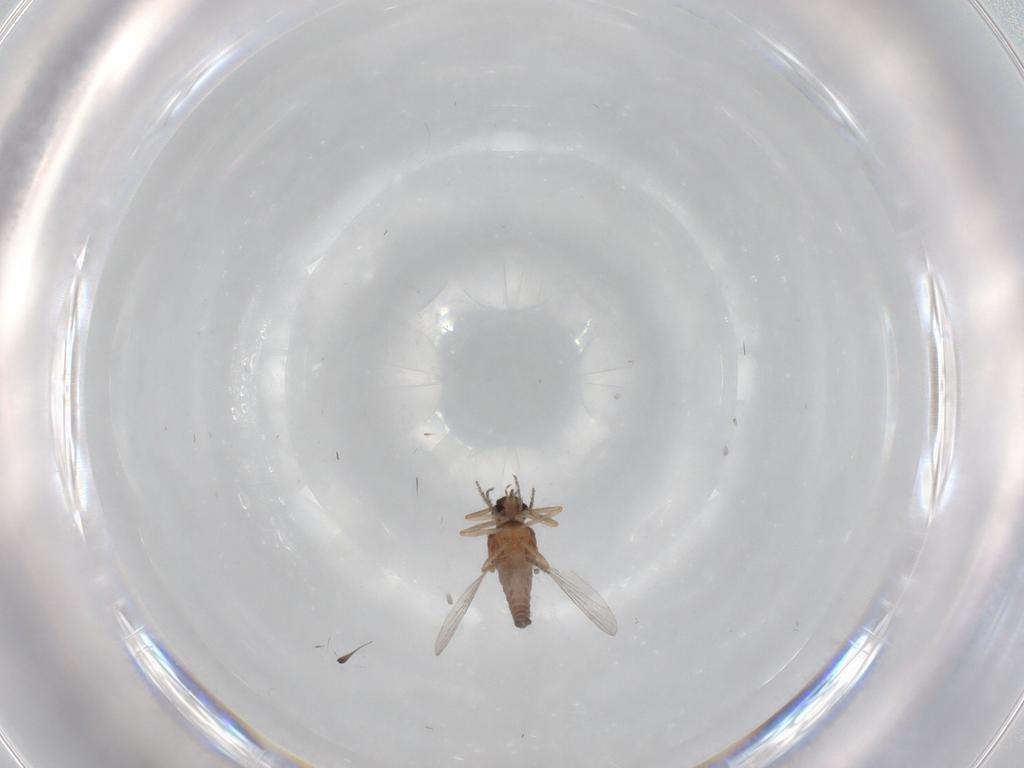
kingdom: Animalia
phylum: Arthropoda
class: Insecta
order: Diptera
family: Ceratopogonidae
